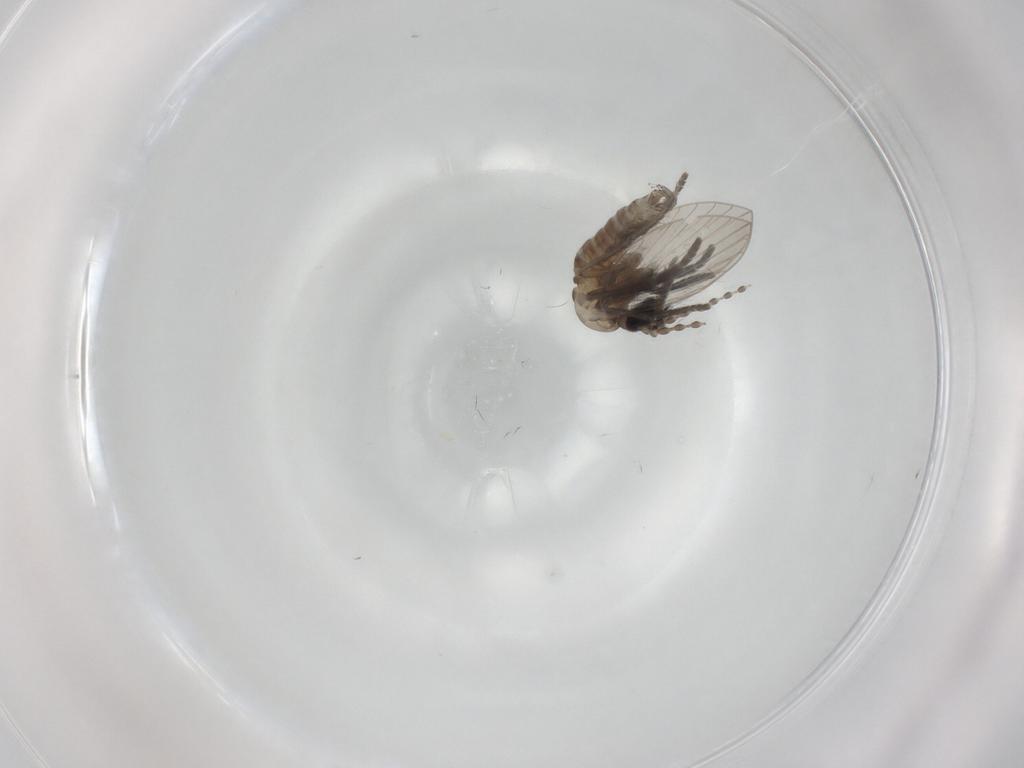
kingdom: Animalia
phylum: Arthropoda
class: Insecta
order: Diptera
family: Psychodidae
